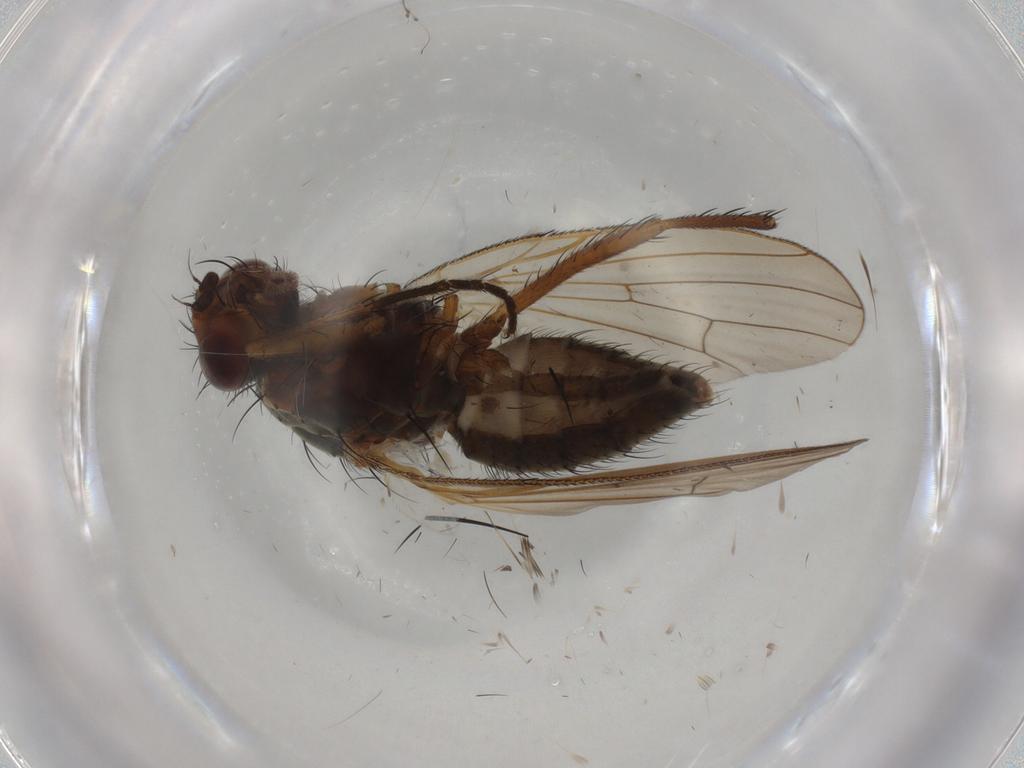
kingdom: Animalia
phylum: Arthropoda
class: Insecta
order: Diptera
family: Anthomyiidae
